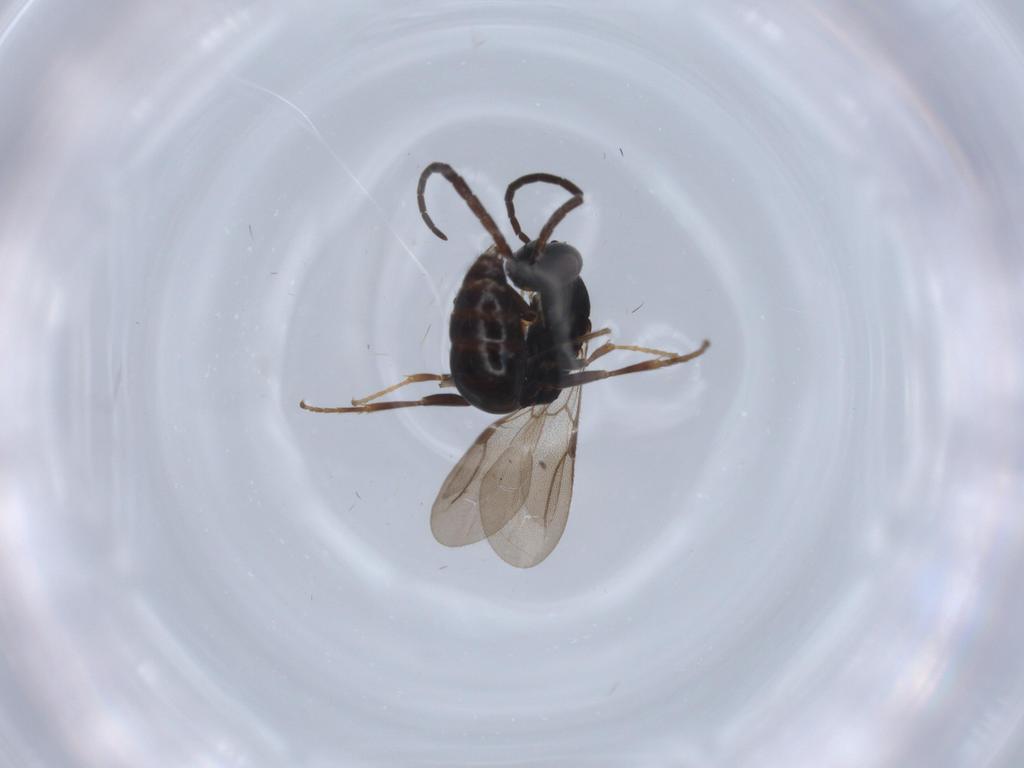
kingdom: Animalia
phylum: Arthropoda
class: Insecta
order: Hymenoptera
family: Bethylidae
